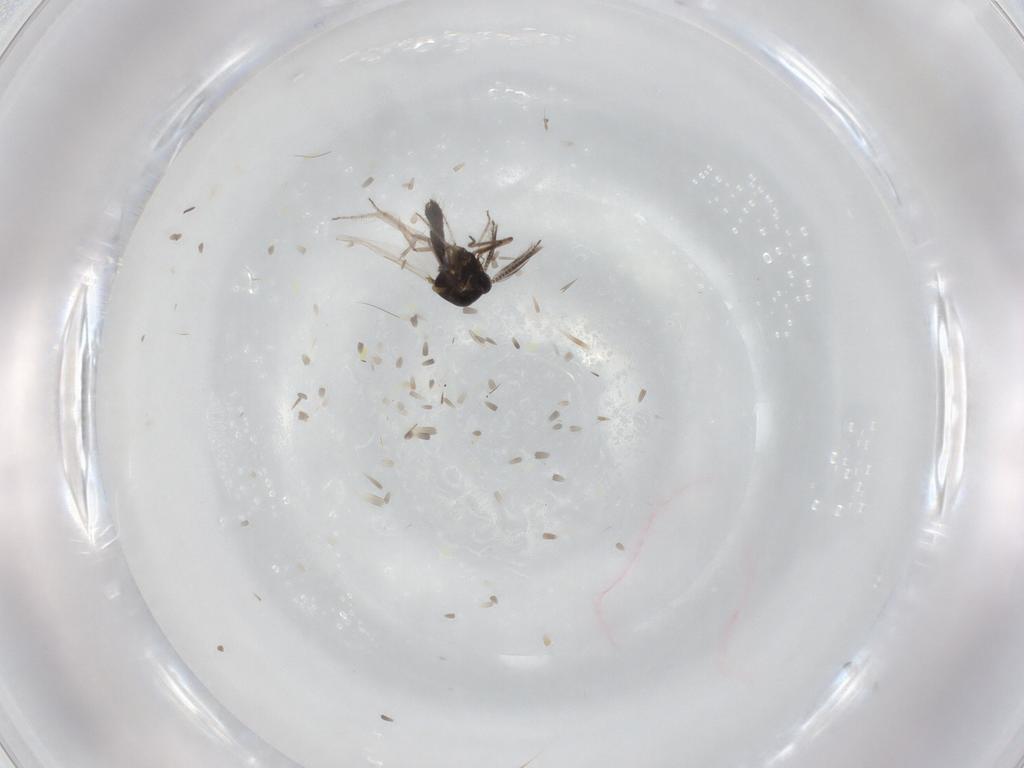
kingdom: Animalia
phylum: Arthropoda
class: Insecta
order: Diptera
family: Ceratopogonidae
